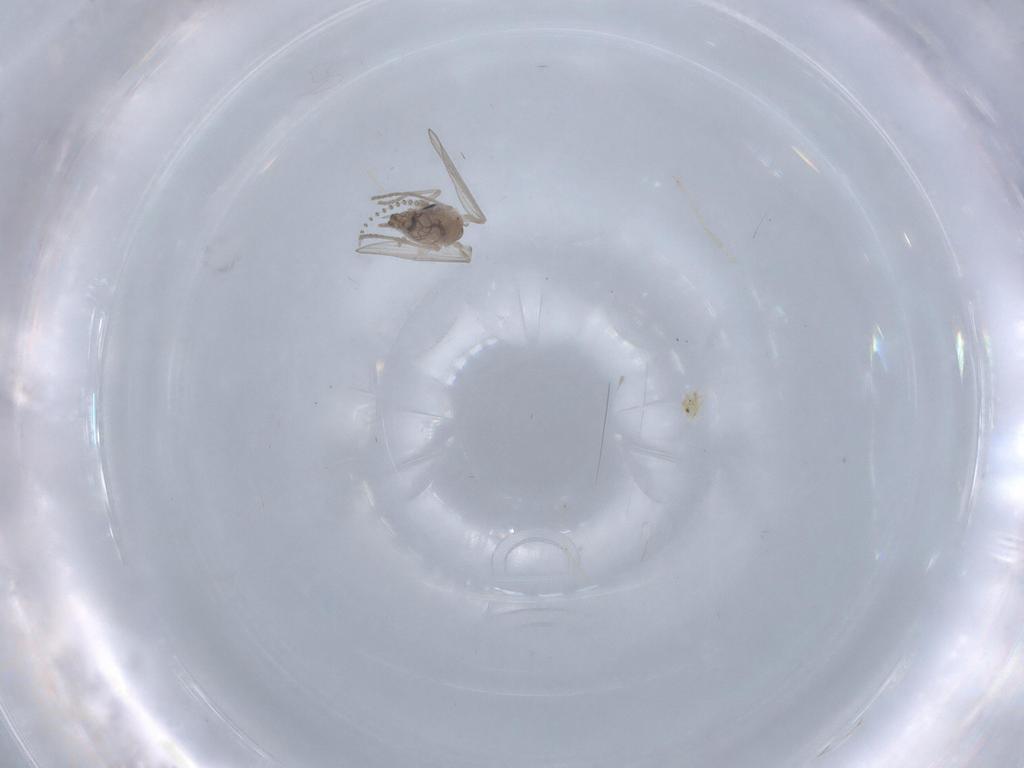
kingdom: Animalia
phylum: Arthropoda
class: Insecta
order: Diptera
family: Psychodidae
